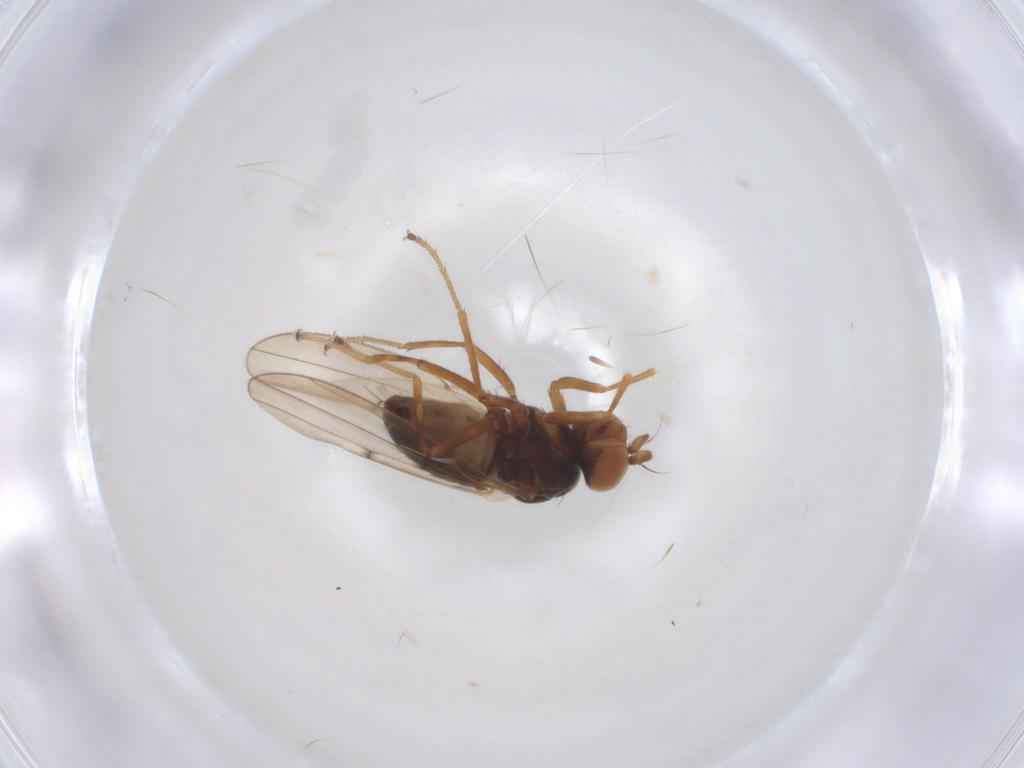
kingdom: Animalia
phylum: Arthropoda
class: Insecta
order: Diptera
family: Dolichopodidae
